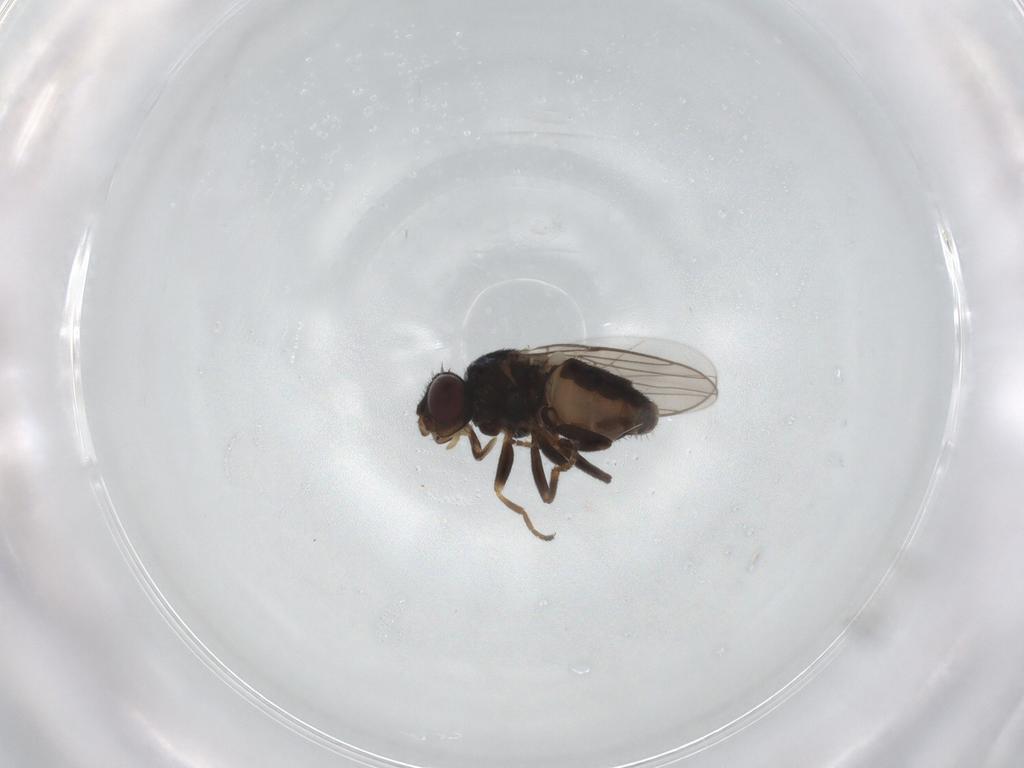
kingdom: Animalia
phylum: Arthropoda
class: Insecta
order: Diptera
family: Chloropidae
